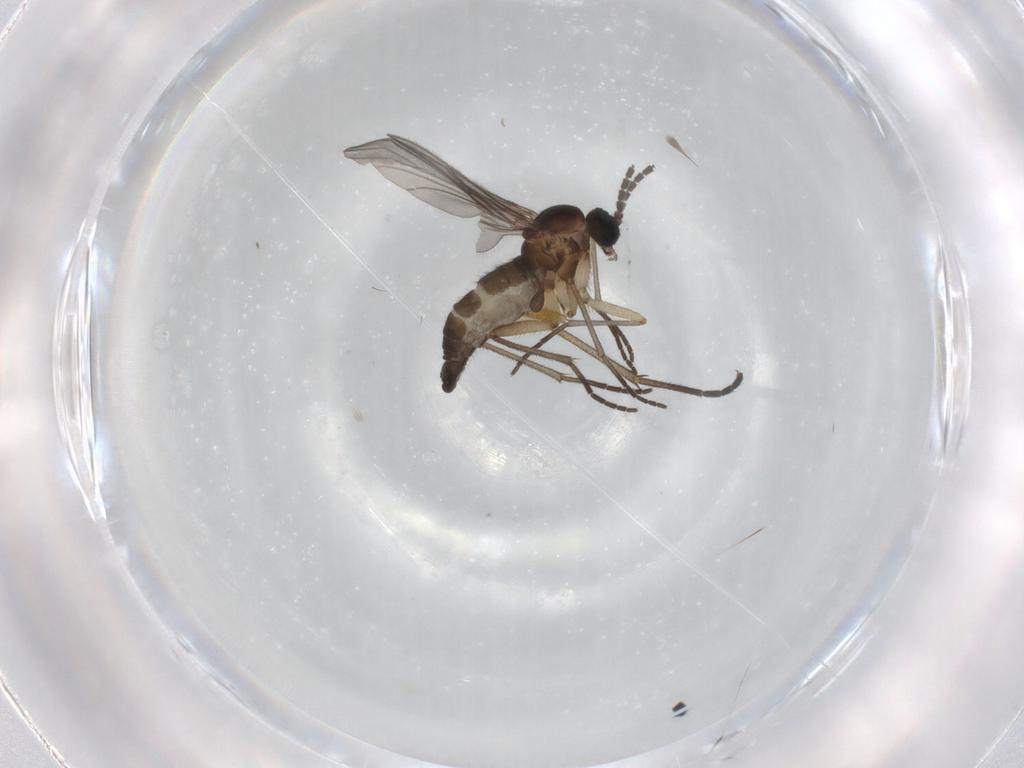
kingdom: Animalia
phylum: Arthropoda
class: Insecta
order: Diptera
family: Sciaridae
